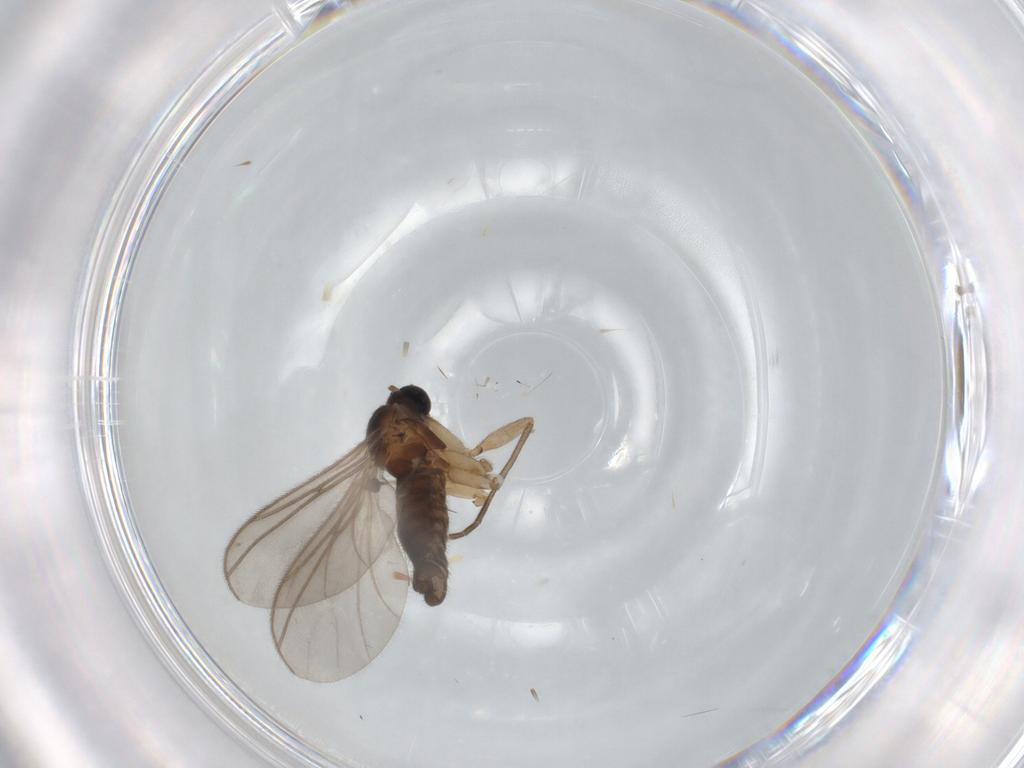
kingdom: Animalia
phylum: Arthropoda
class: Insecta
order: Diptera
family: Sciaridae
